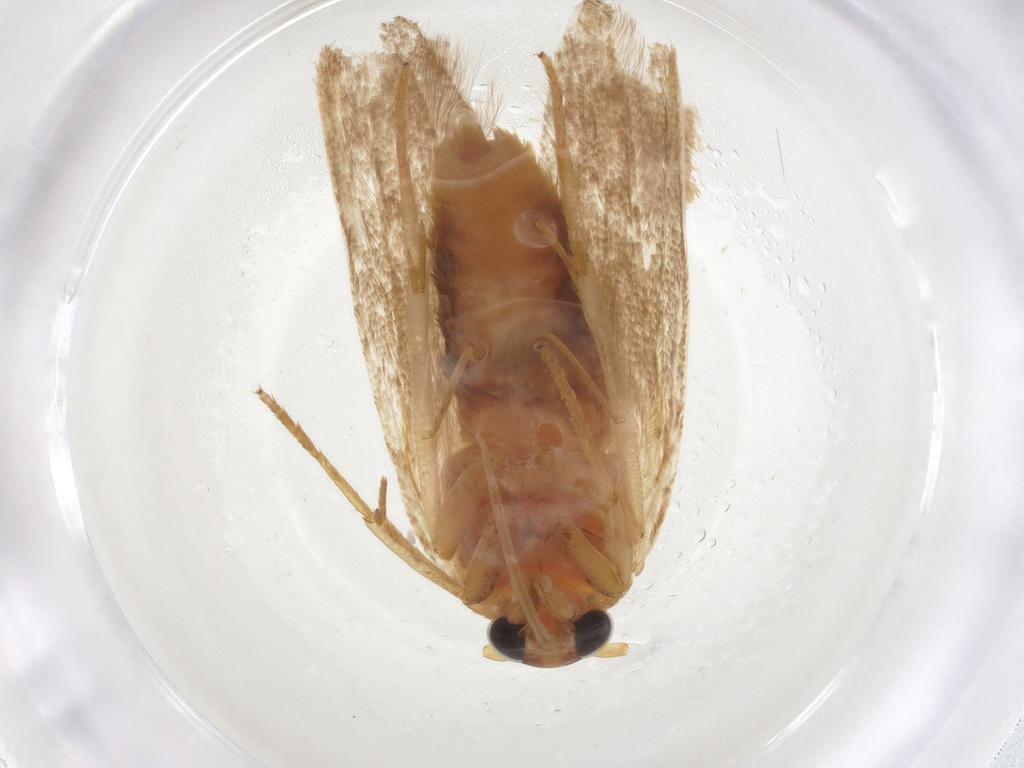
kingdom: Animalia
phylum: Arthropoda
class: Insecta
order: Lepidoptera
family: Blastobasidae
